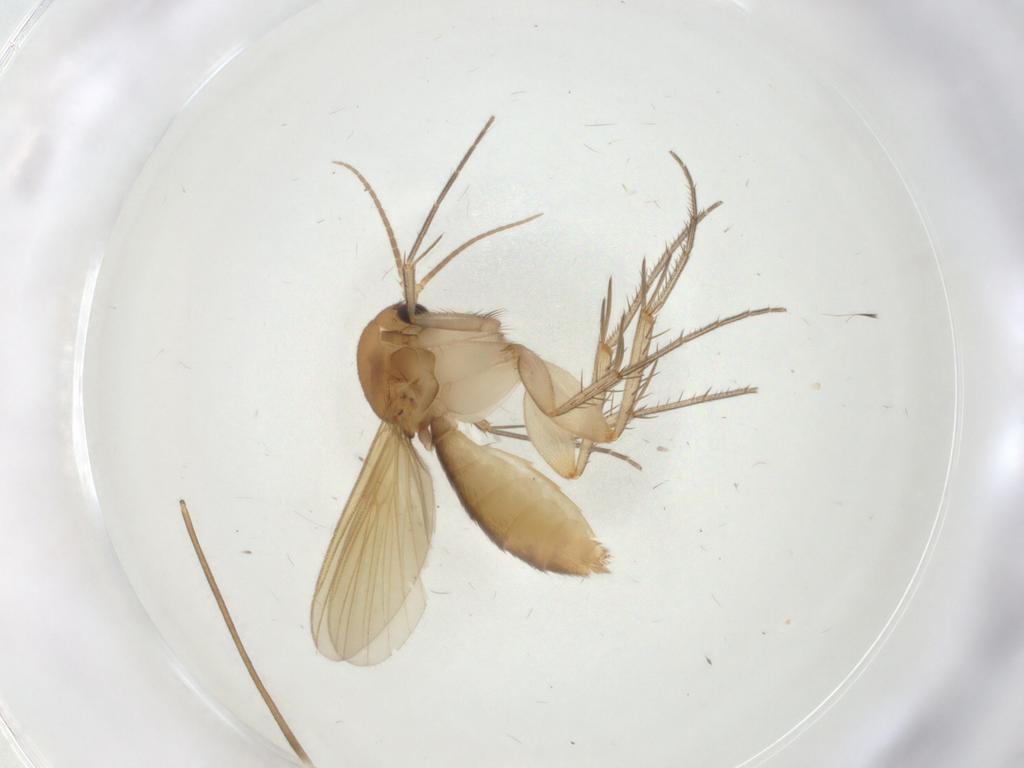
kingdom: Animalia
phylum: Arthropoda
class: Insecta
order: Diptera
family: Mycetophilidae
